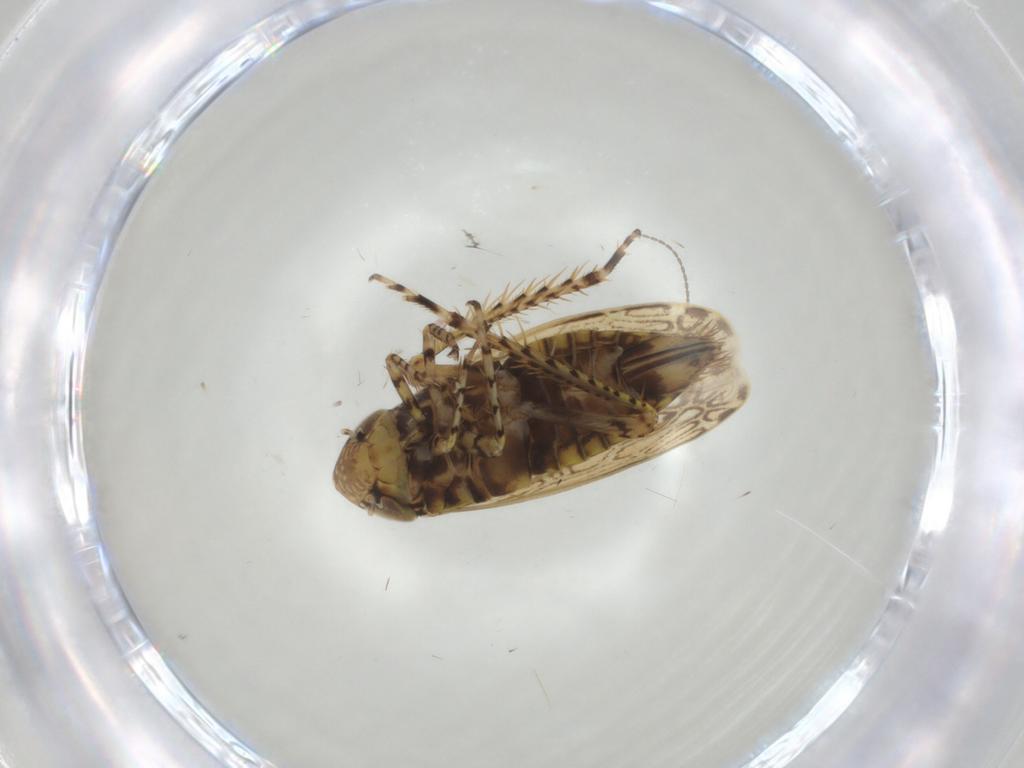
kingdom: Animalia
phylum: Arthropoda
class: Insecta
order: Hemiptera
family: Cicadellidae
